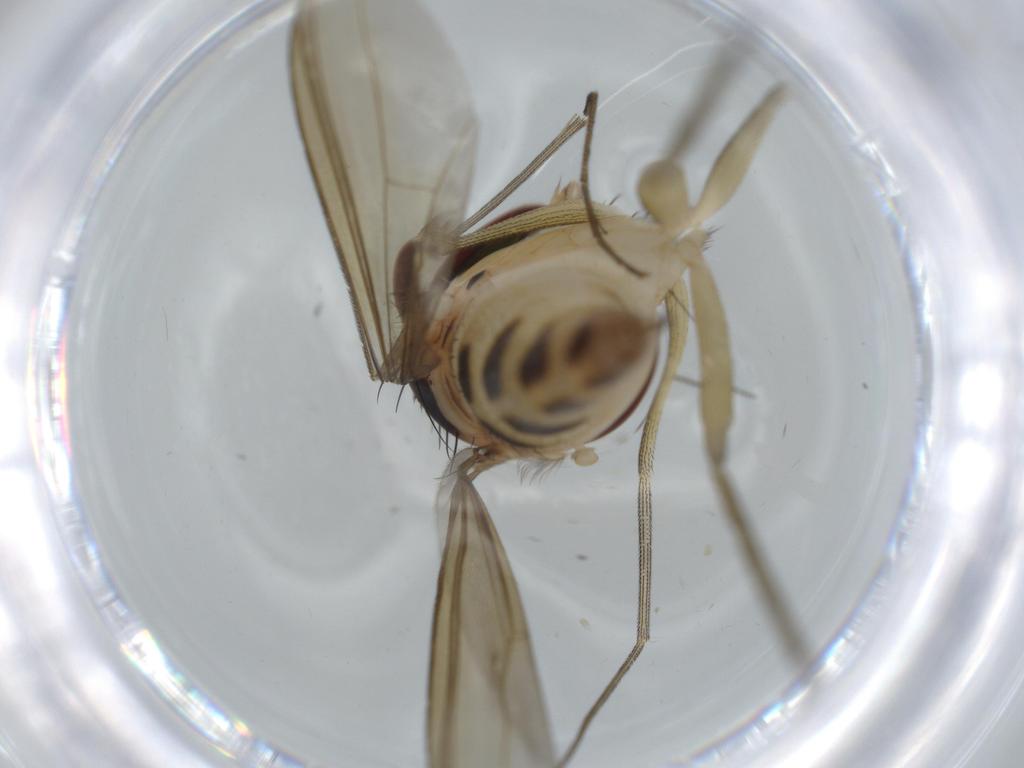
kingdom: Animalia
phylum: Arthropoda
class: Insecta
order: Diptera
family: Dolichopodidae
